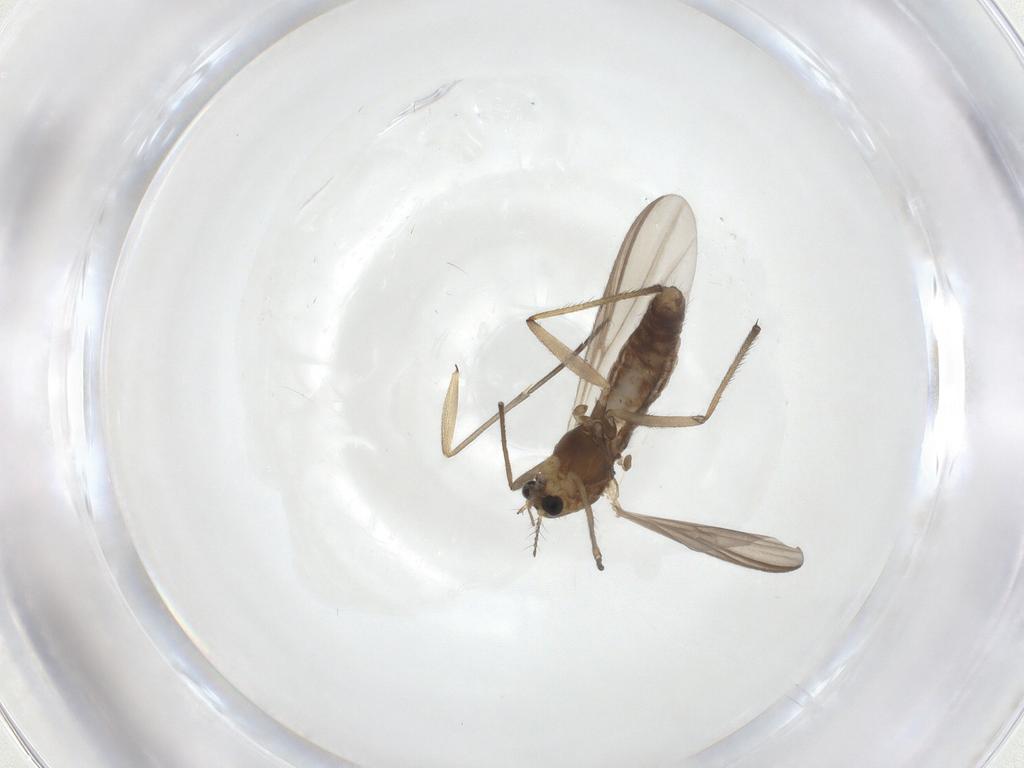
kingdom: Animalia
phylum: Arthropoda
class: Insecta
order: Diptera
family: Chironomidae
